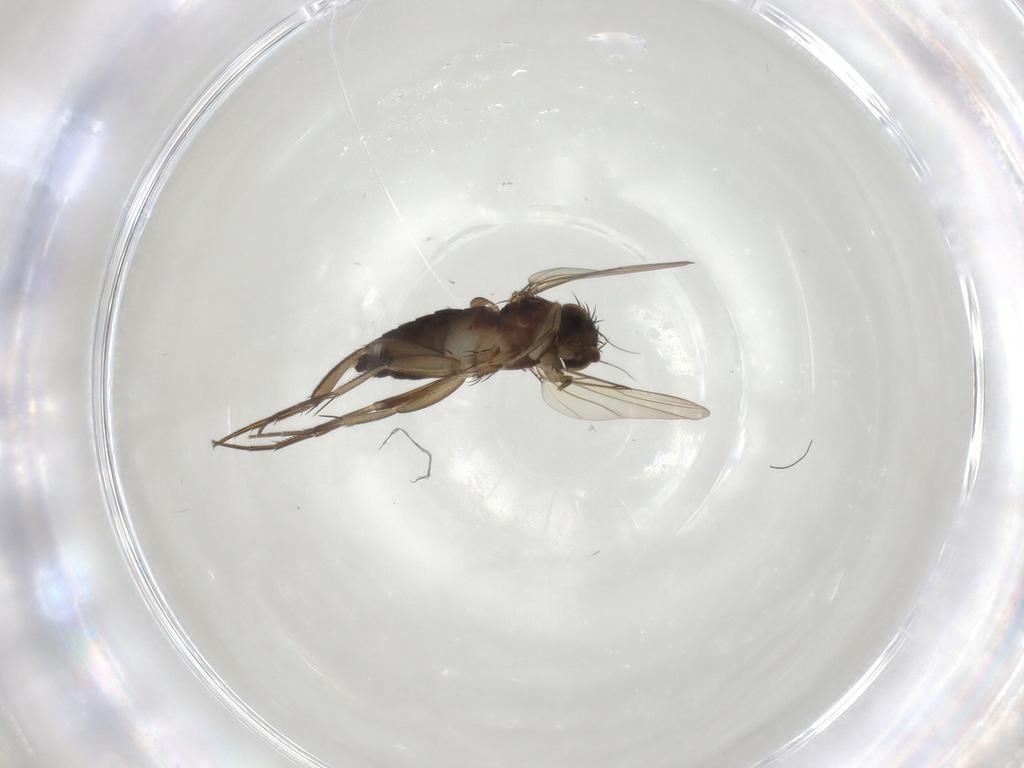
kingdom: Animalia
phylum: Arthropoda
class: Insecta
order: Diptera
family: Phoridae
